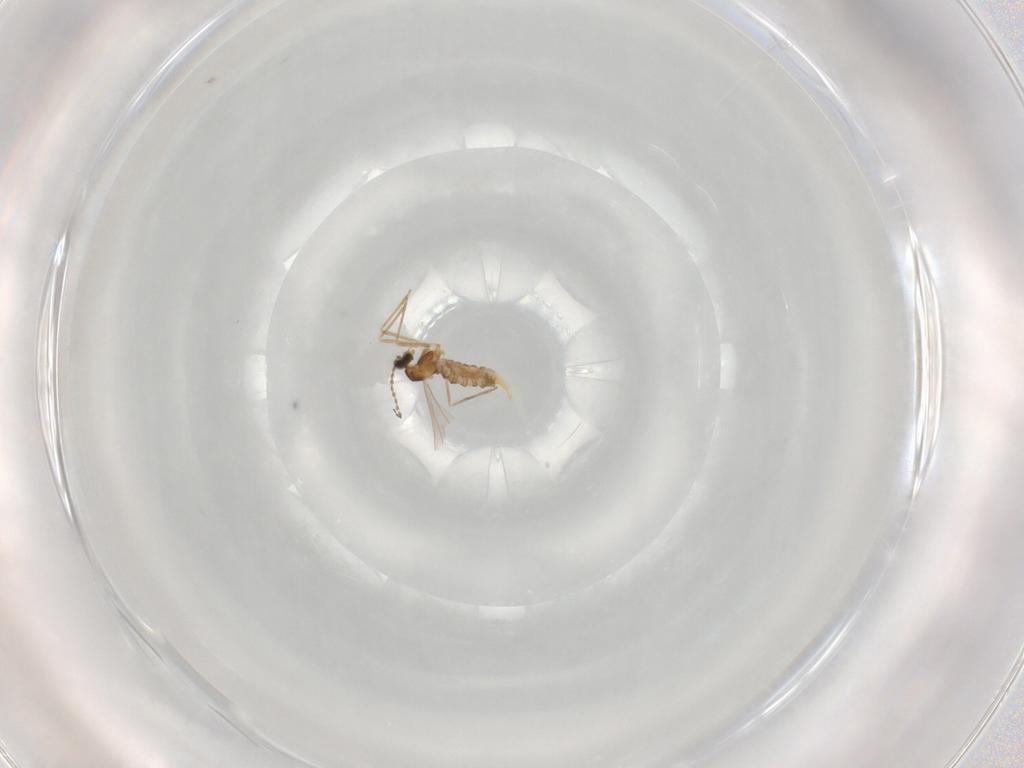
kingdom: Animalia
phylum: Arthropoda
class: Insecta
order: Diptera
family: Cecidomyiidae
